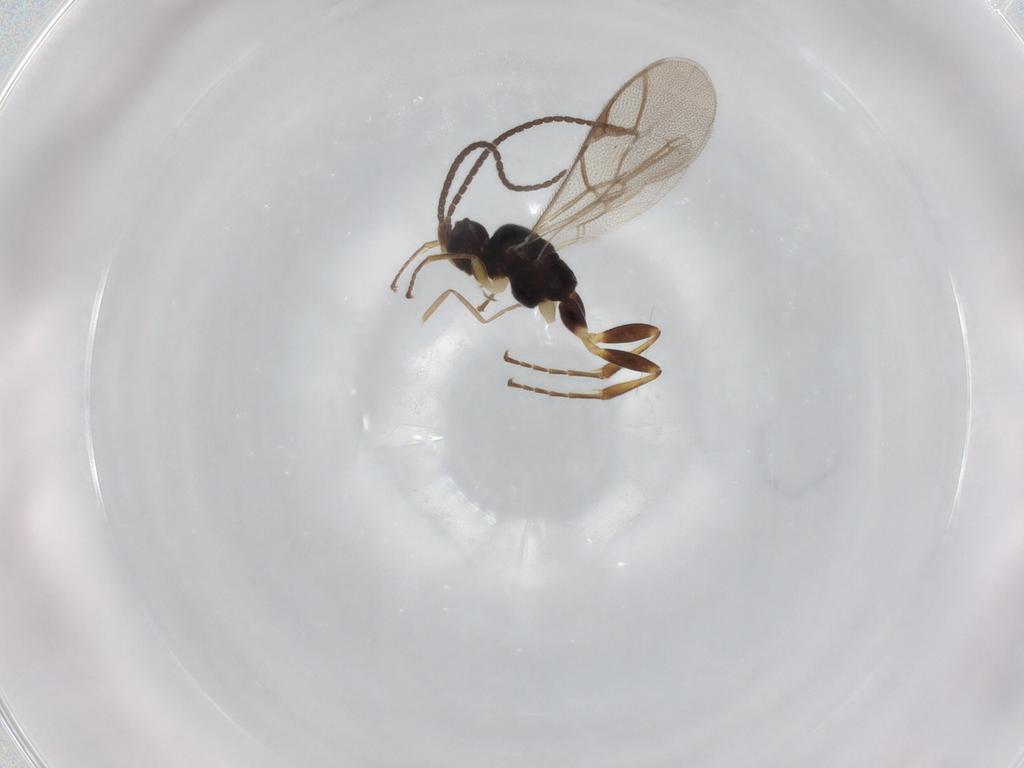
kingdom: Animalia
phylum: Arthropoda
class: Insecta
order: Hymenoptera
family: Ichneumonidae
